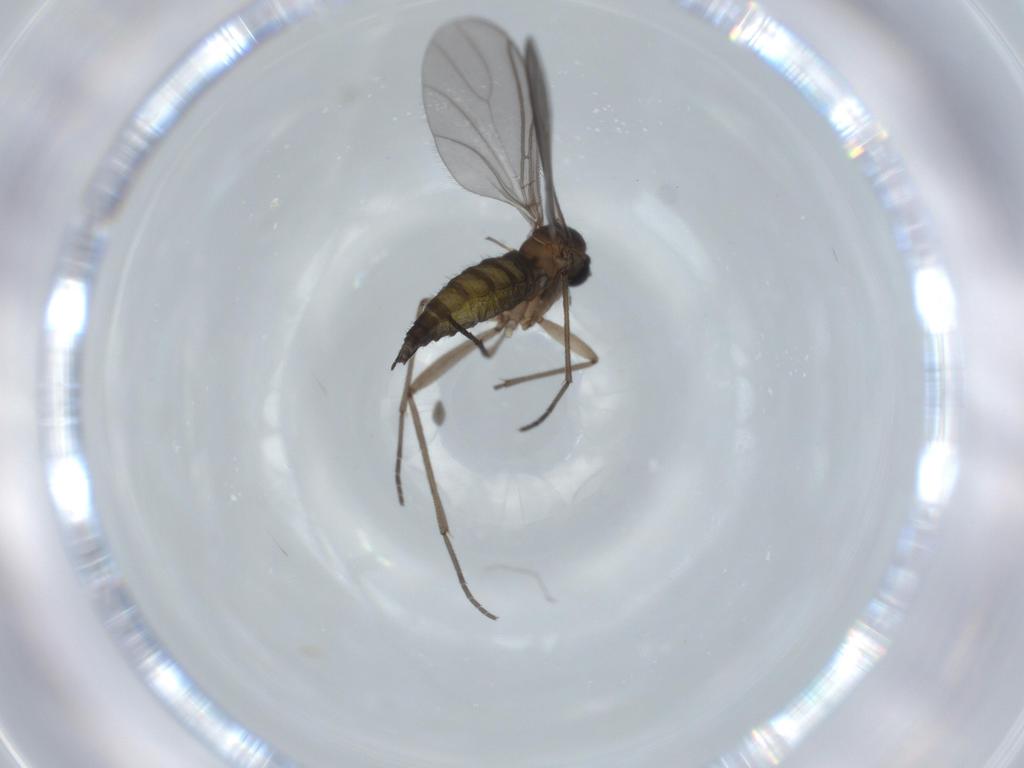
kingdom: Animalia
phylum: Arthropoda
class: Insecta
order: Diptera
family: Sciaridae
